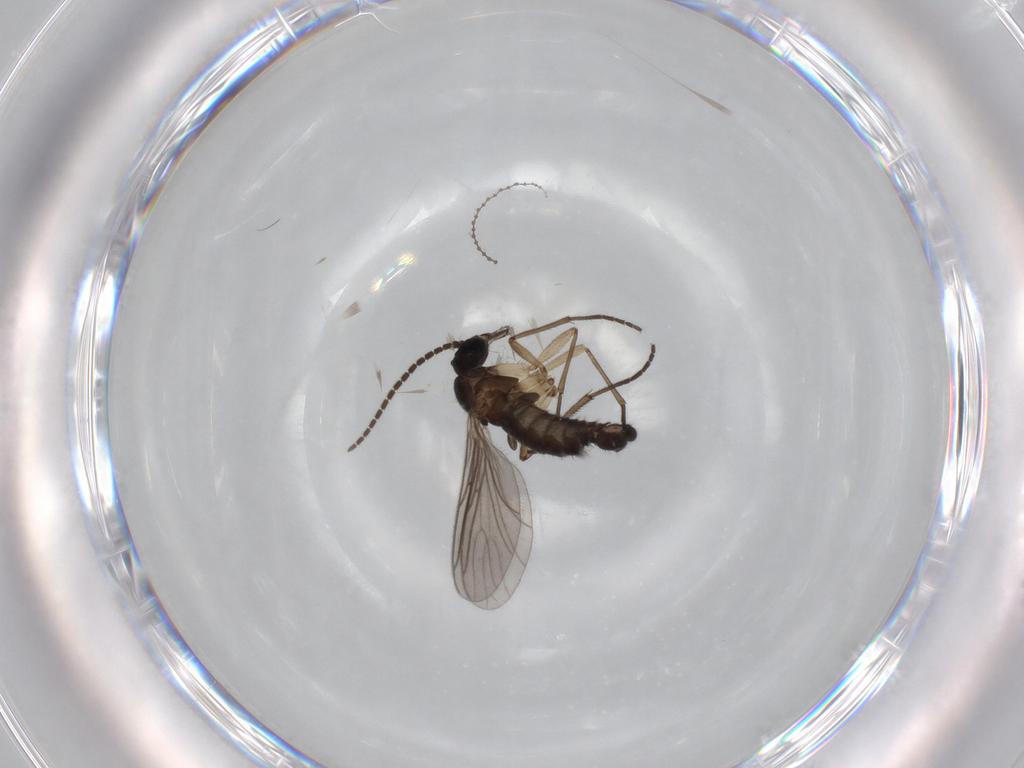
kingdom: Animalia
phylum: Arthropoda
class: Insecta
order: Diptera
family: Sciaridae
